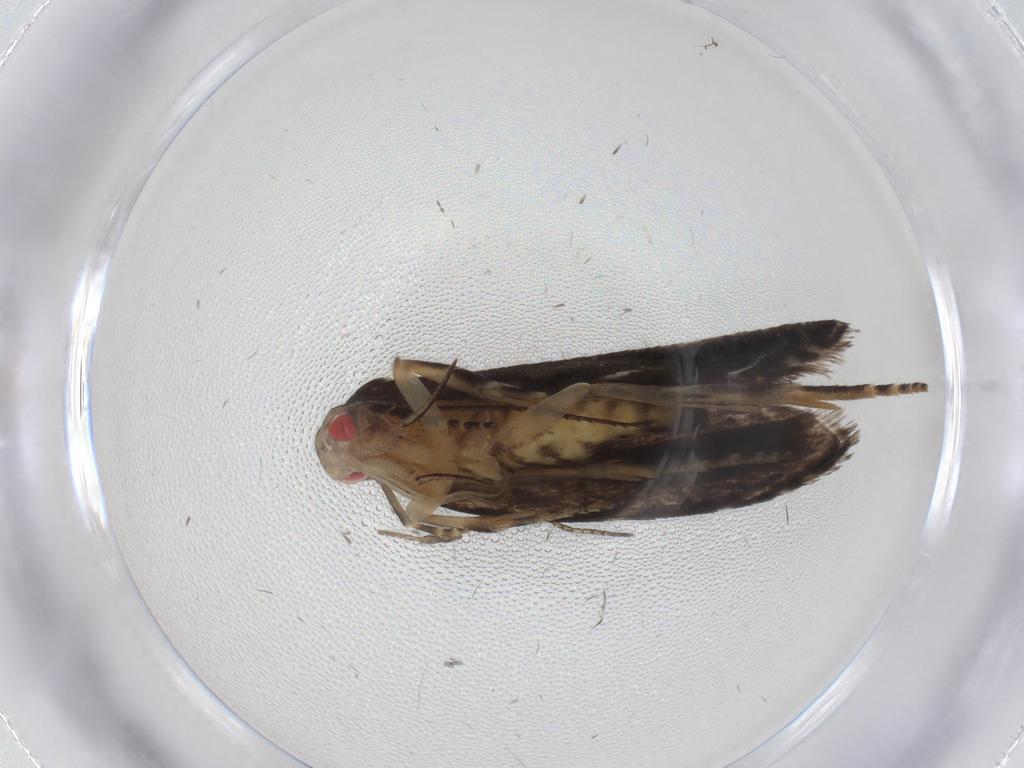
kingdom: Animalia
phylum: Arthropoda
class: Insecta
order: Lepidoptera
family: Crambidae
